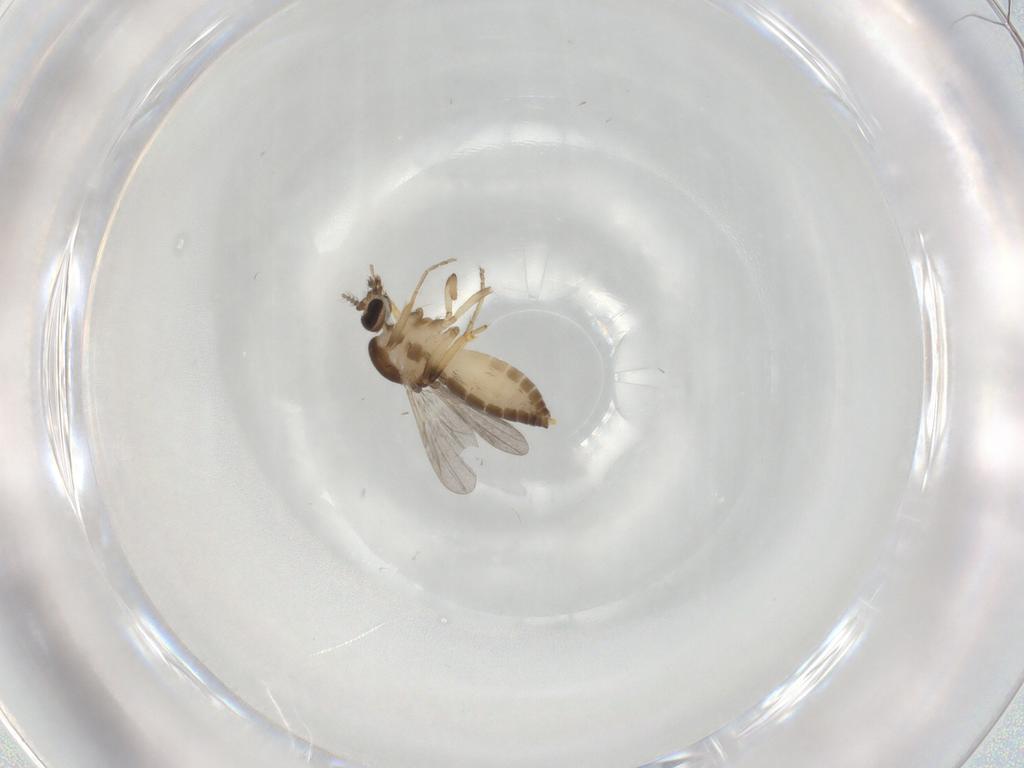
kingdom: Animalia
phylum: Arthropoda
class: Insecta
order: Diptera
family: Ceratopogonidae
